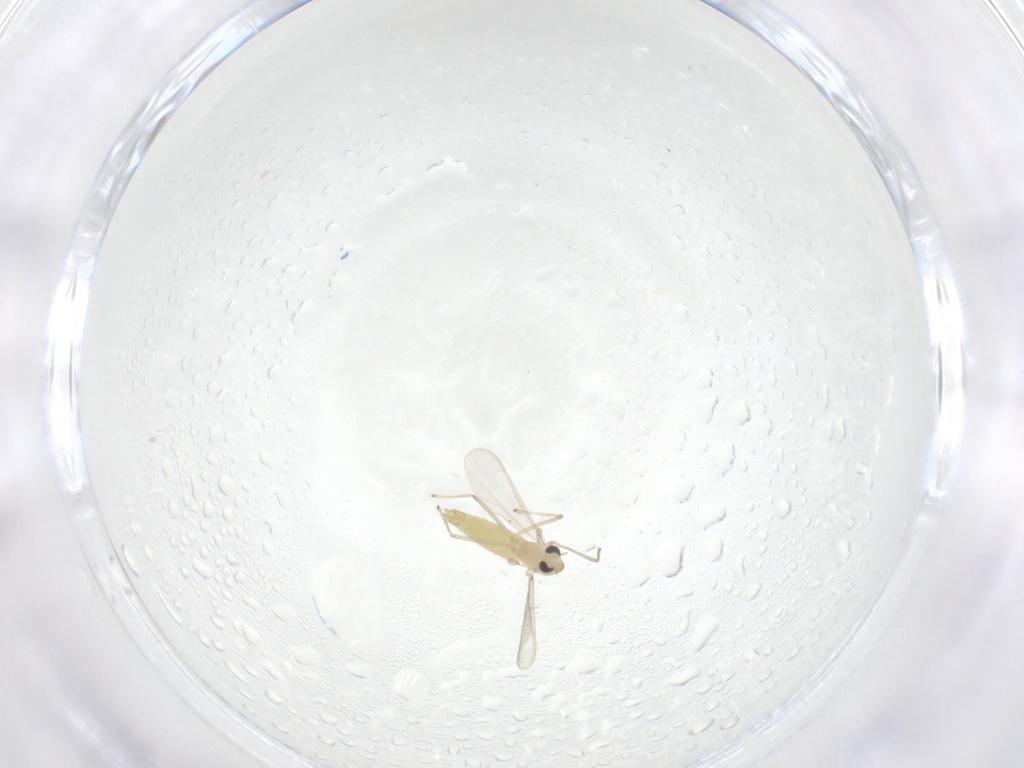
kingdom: Animalia
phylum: Arthropoda
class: Insecta
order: Diptera
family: Chironomidae
